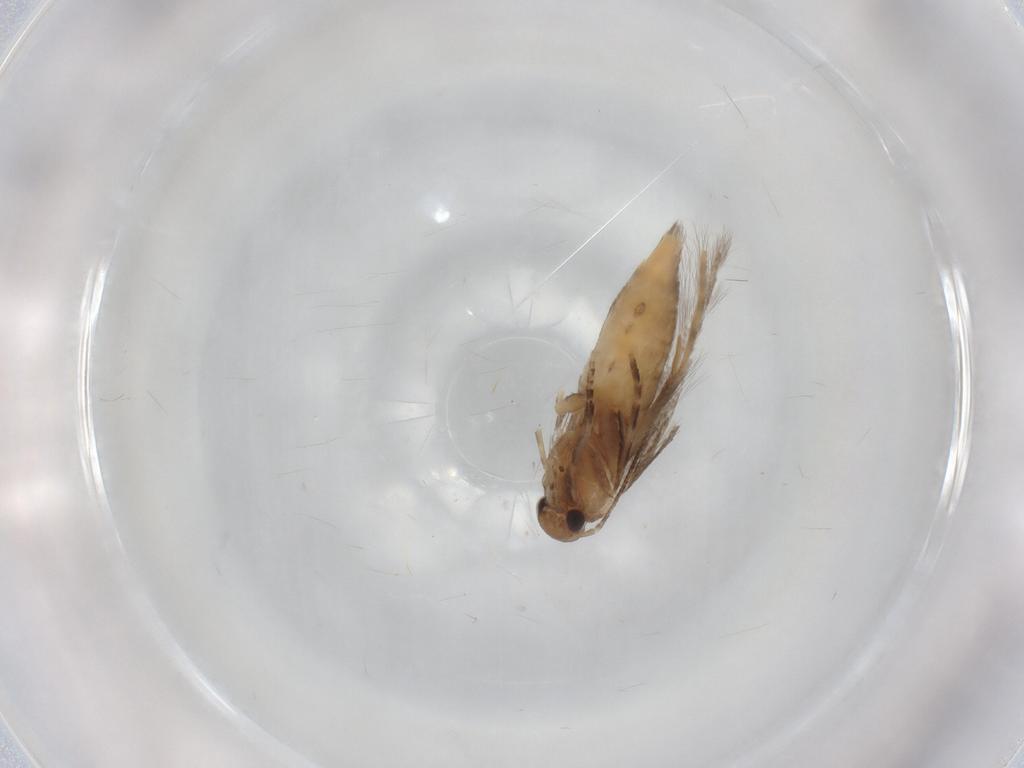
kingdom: Animalia
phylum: Arthropoda
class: Insecta
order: Lepidoptera
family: Elachistidae
